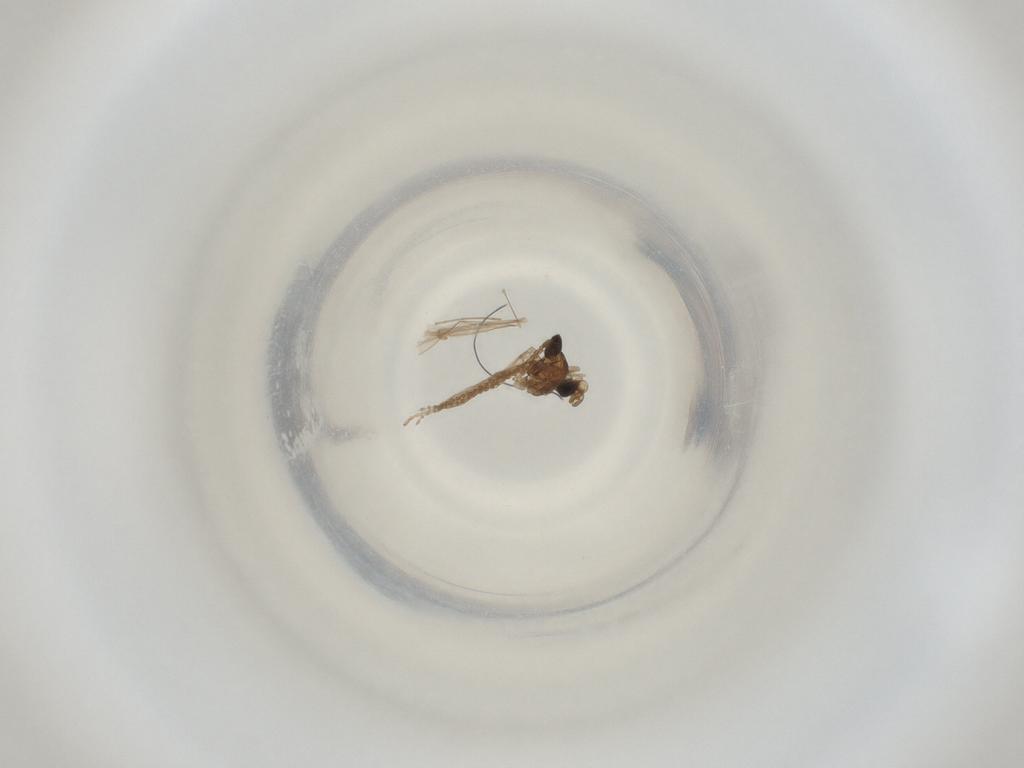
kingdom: Animalia
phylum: Arthropoda
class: Insecta
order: Diptera
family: Cecidomyiidae
